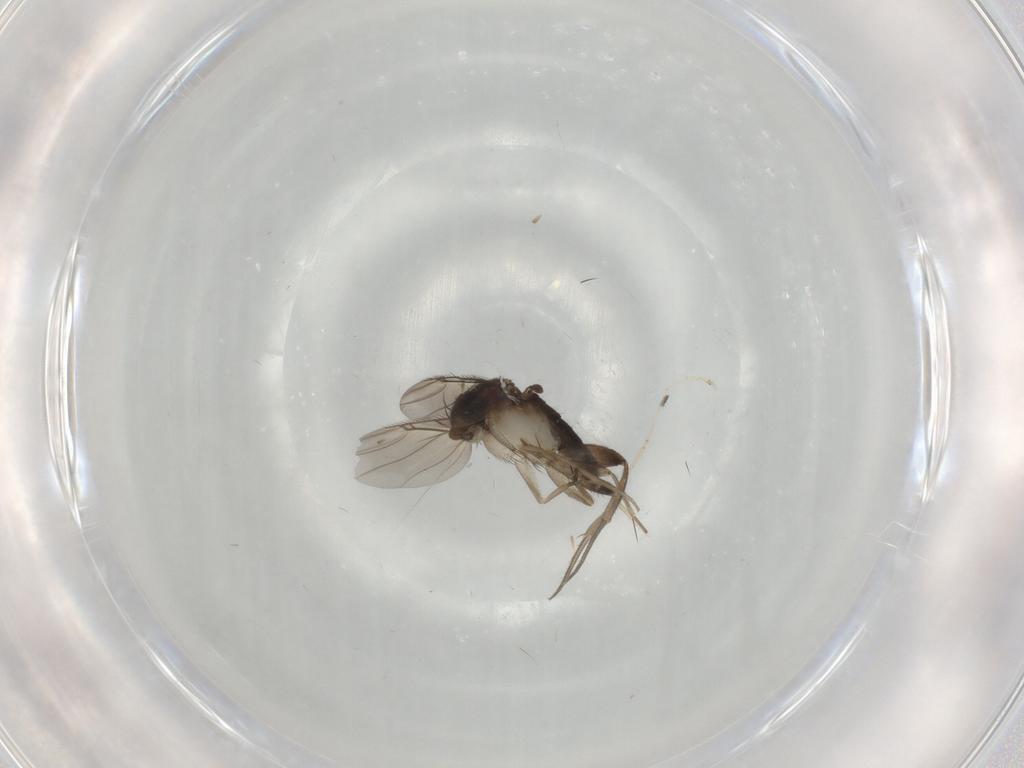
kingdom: Animalia
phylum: Arthropoda
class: Insecta
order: Diptera
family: Phoridae
